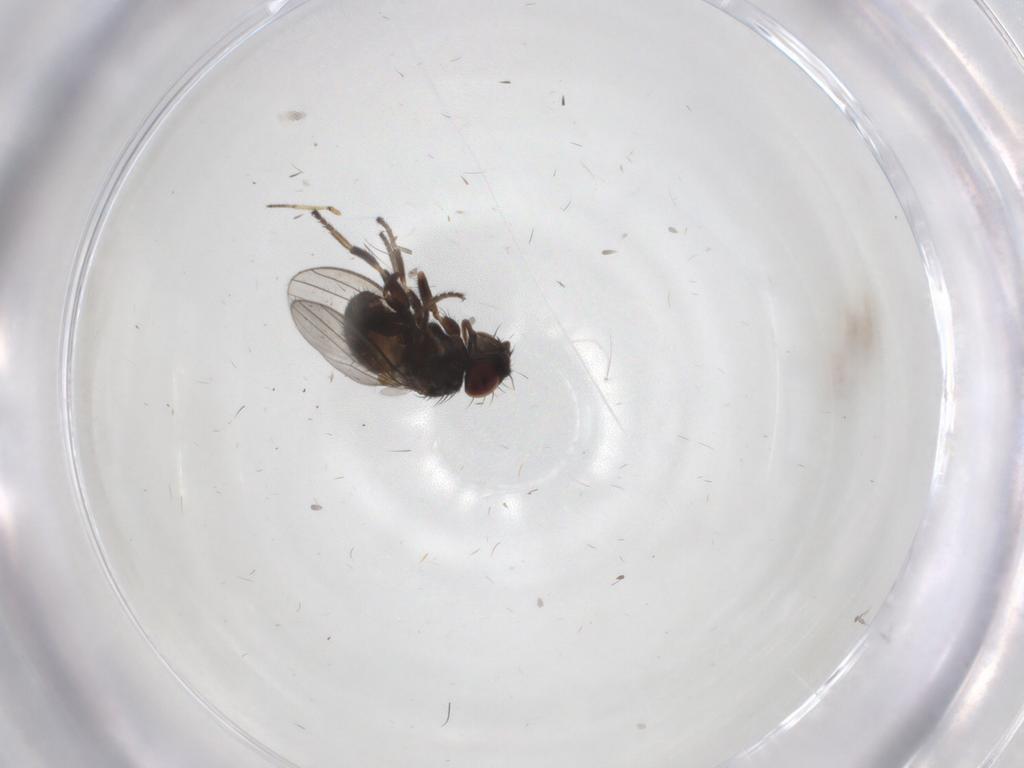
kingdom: Animalia
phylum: Arthropoda
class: Insecta
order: Diptera
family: Milichiidae
